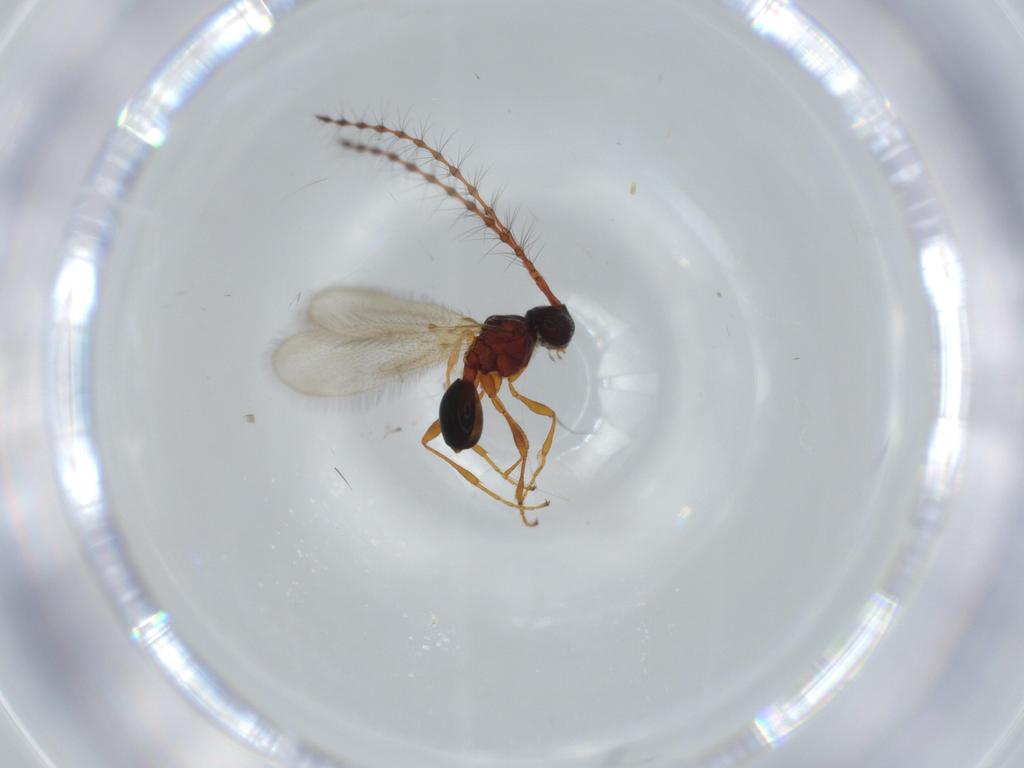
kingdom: Animalia
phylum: Arthropoda
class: Insecta
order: Hymenoptera
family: Diapriidae
